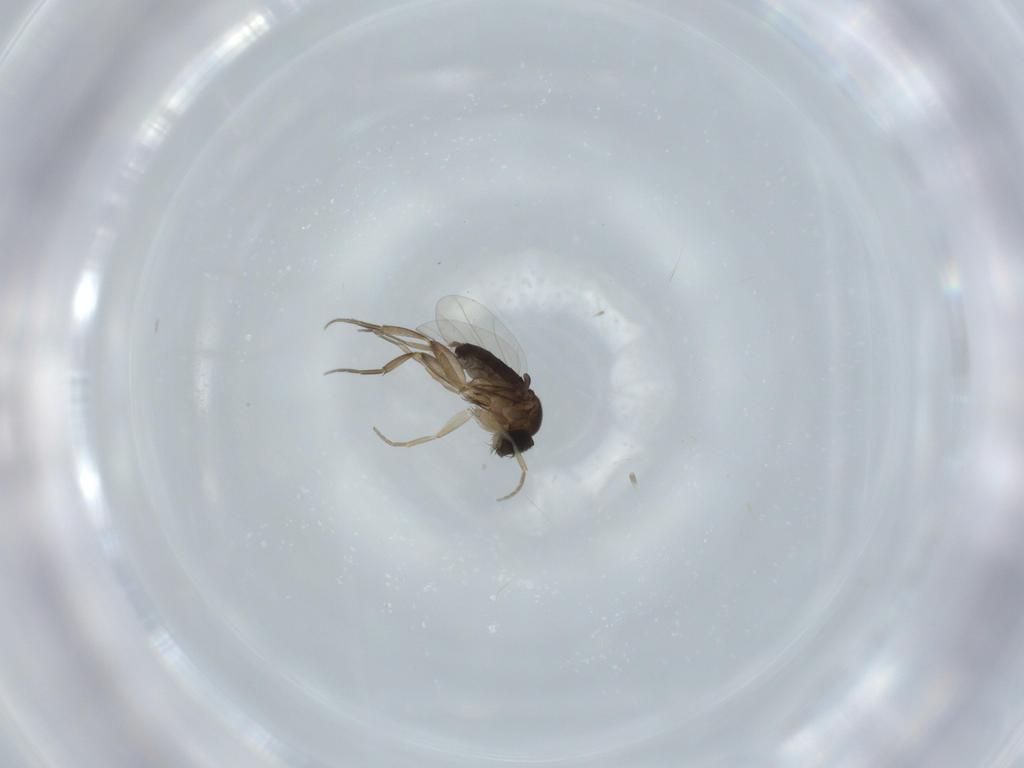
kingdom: Animalia
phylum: Arthropoda
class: Insecta
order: Diptera
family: Phoridae
